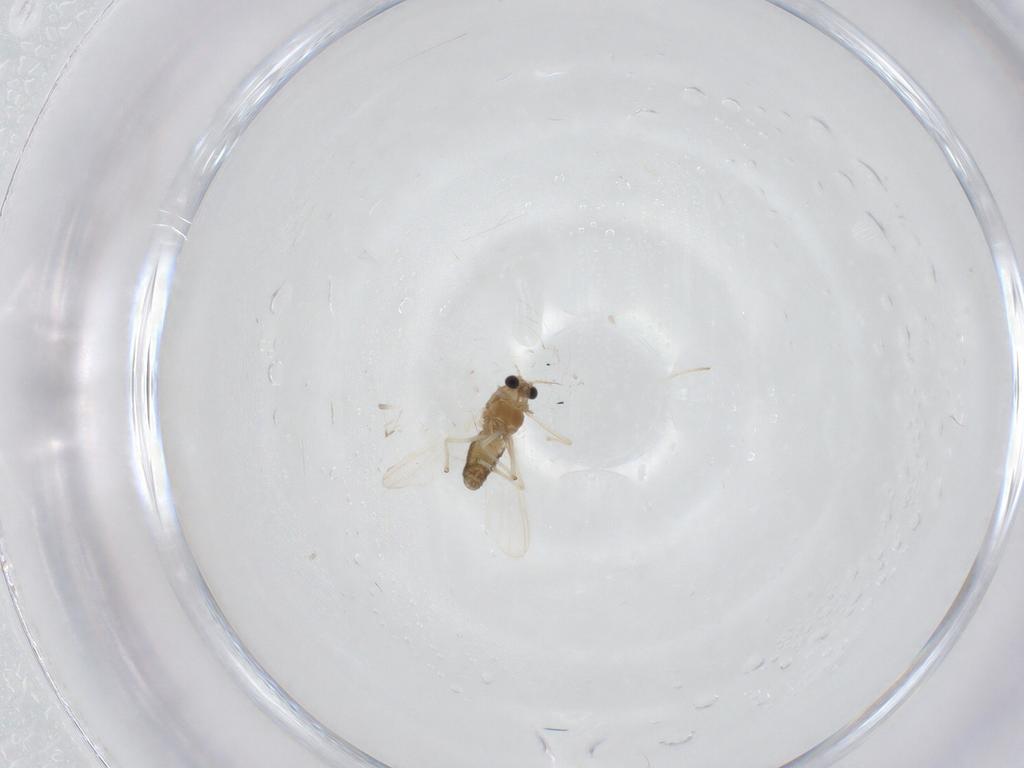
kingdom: Animalia
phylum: Arthropoda
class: Insecta
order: Diptera
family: Chironomidae
